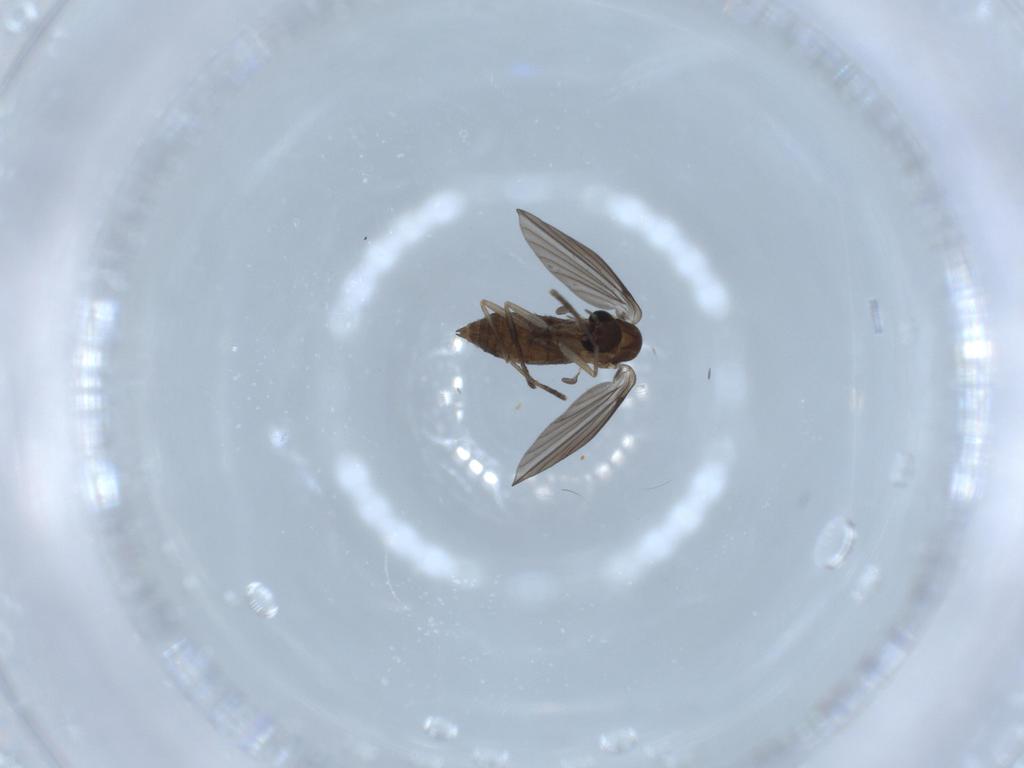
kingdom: Animalia
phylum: Arthropoda
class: Insecta
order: Diptera
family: Psychodidae
